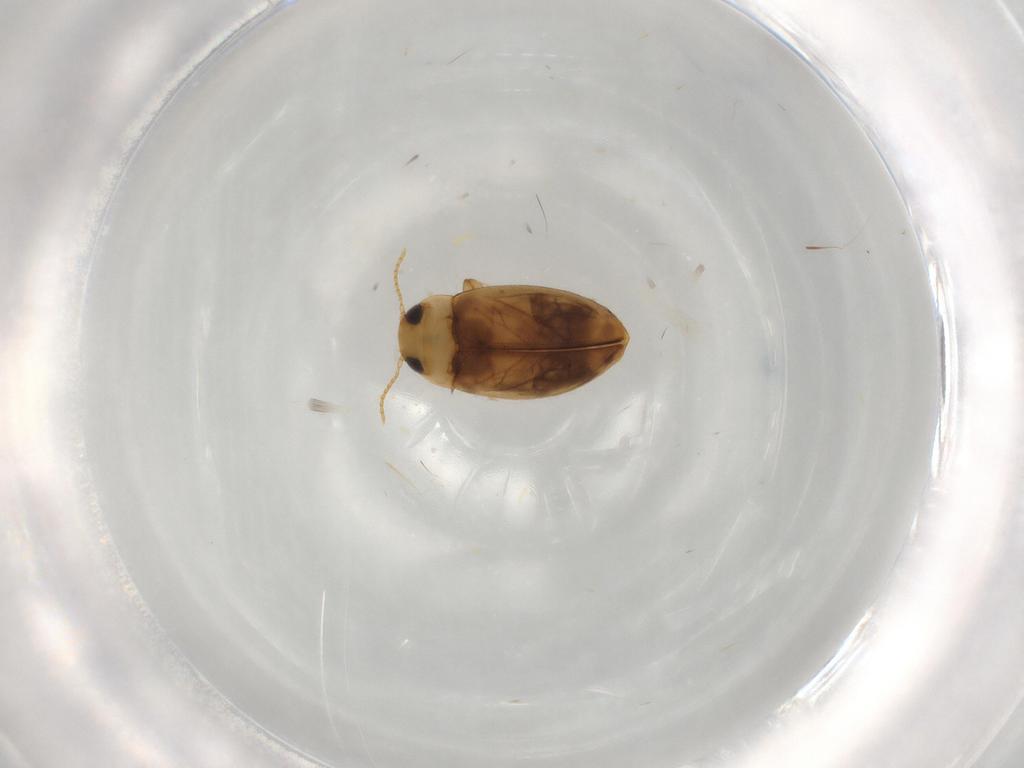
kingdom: Animalia
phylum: Arthropoda
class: Insecta
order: Coleoptera
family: Dytiscidae
